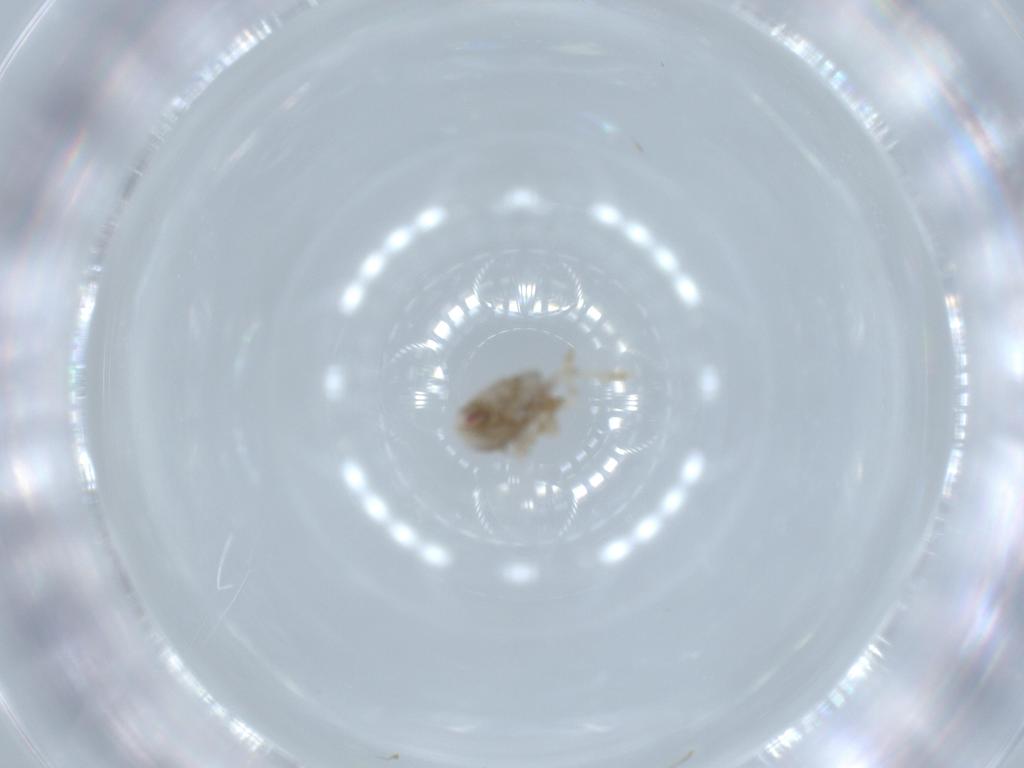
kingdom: Animalia
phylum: Arthropoda
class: Insecta
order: Hemiptera
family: Acanaloniidae
